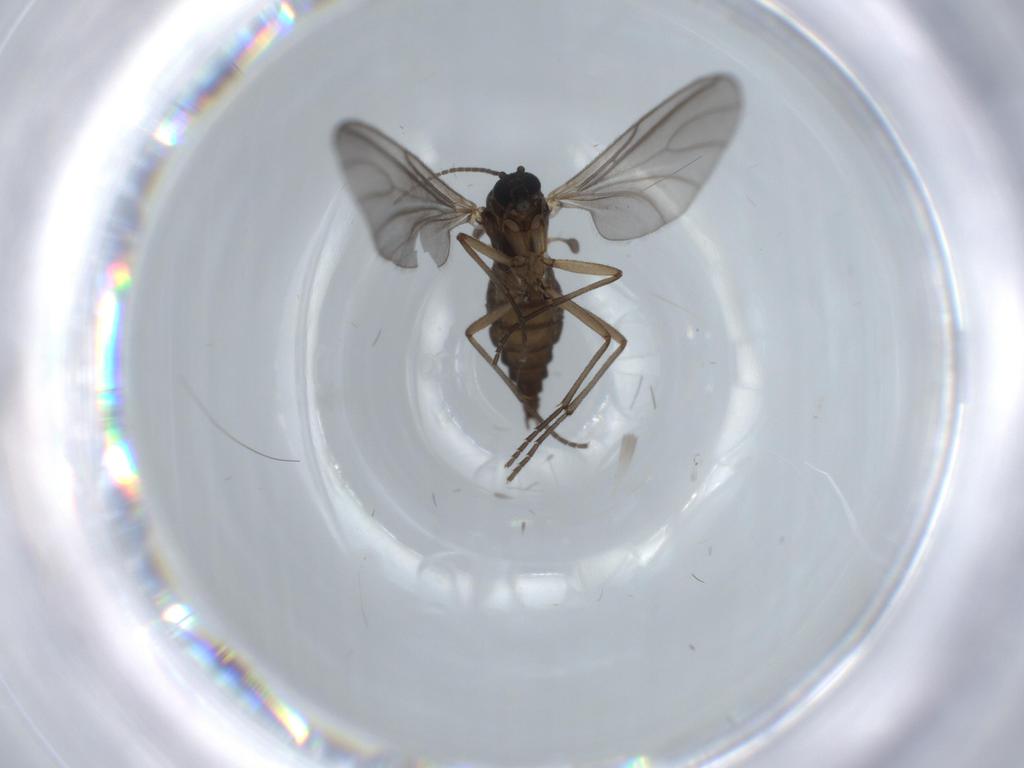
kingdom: Animalia
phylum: Arthropoda
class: Insecta
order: Diptera
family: Sciaridae
